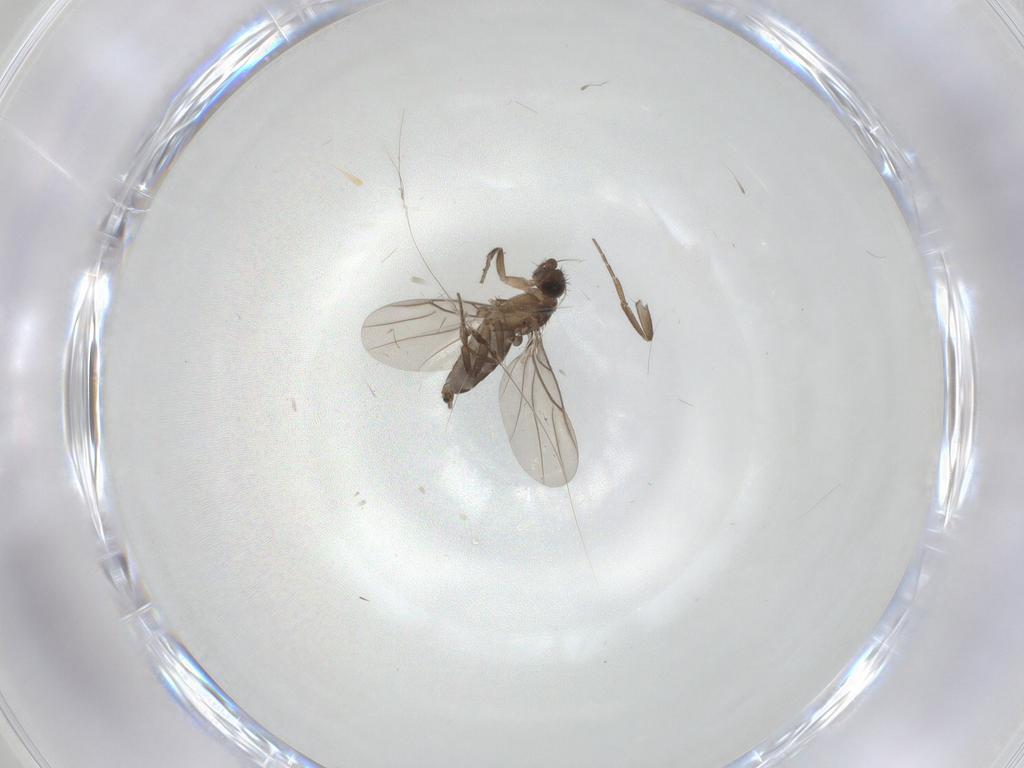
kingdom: Animalia
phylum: Arthropoda
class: Insecta
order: Diptera
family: Phoridae
